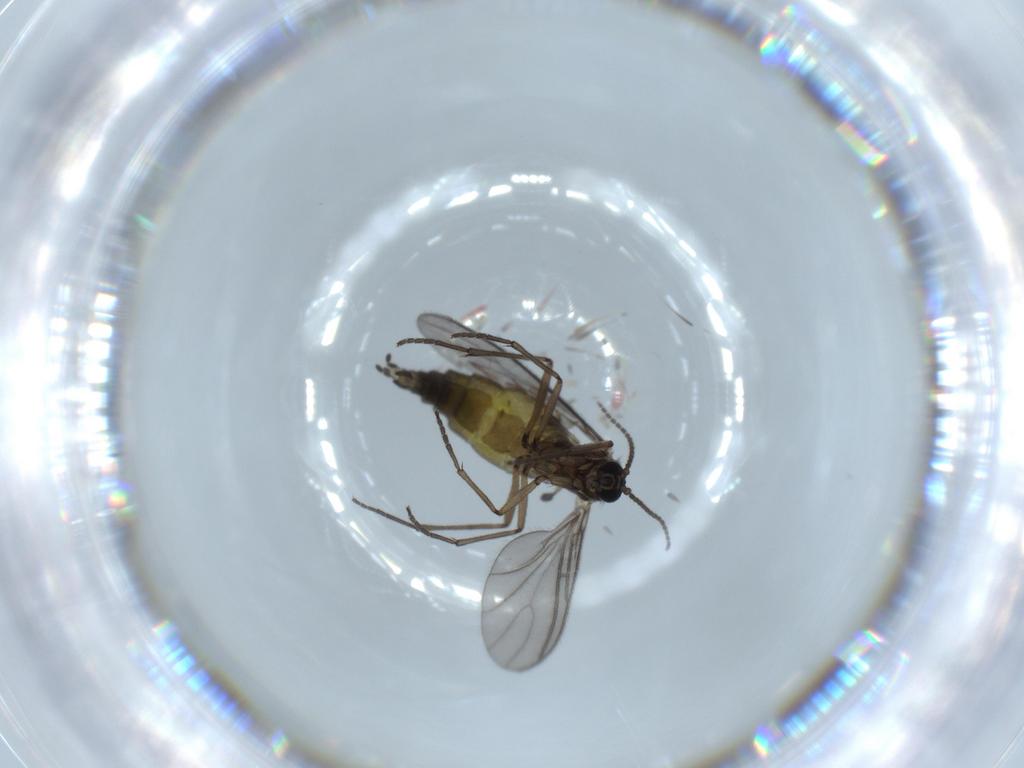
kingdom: Animalia
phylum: Arthropoda
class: Insecta
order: Diptera
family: Sciaridae
